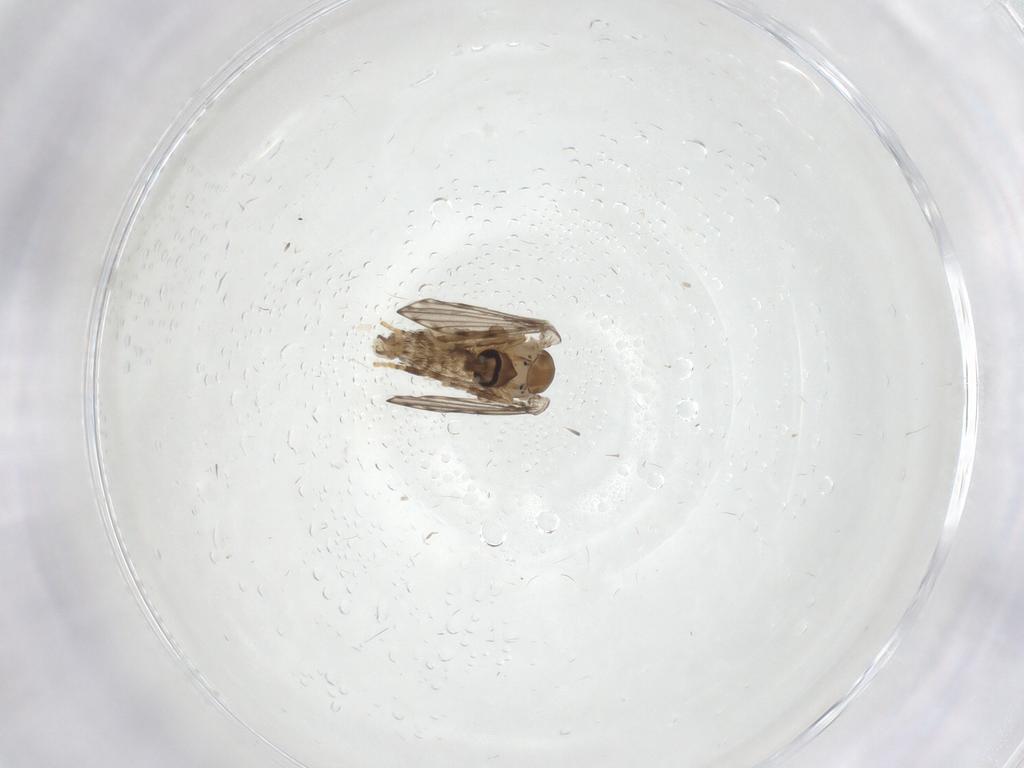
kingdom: Animalia
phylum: Arthropoda
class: Insecta
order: Diptera
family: Psychodidae
